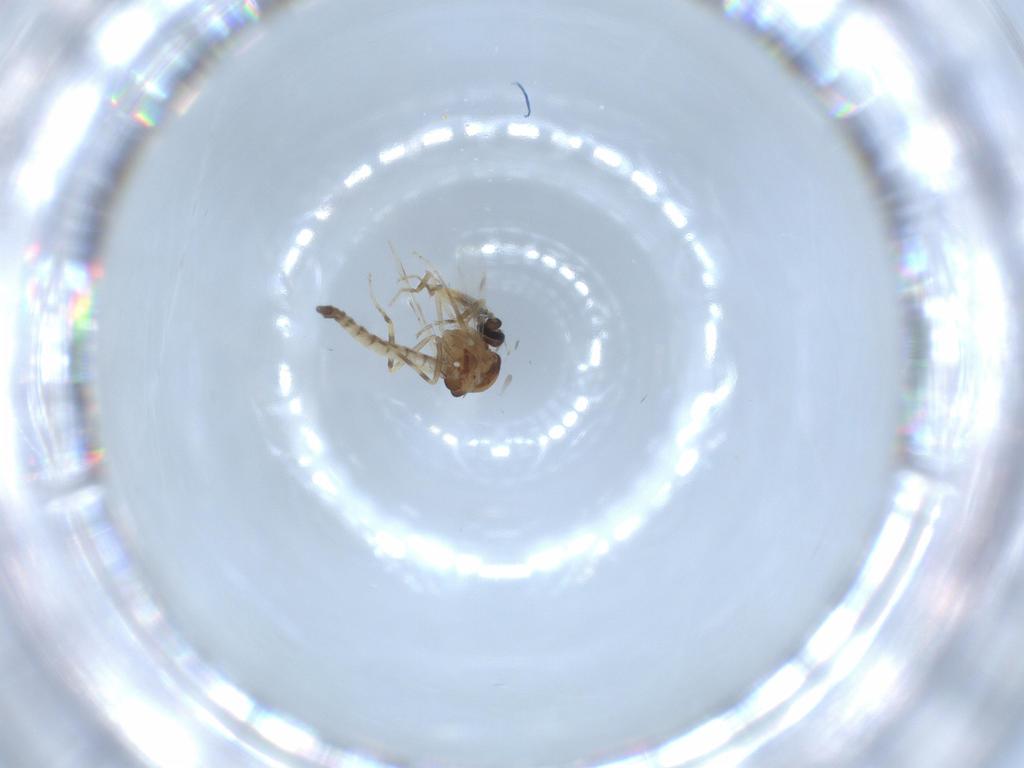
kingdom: Animalia
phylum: Arthropoda
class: Insecta
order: Diptera
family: Ceratopogonidae
